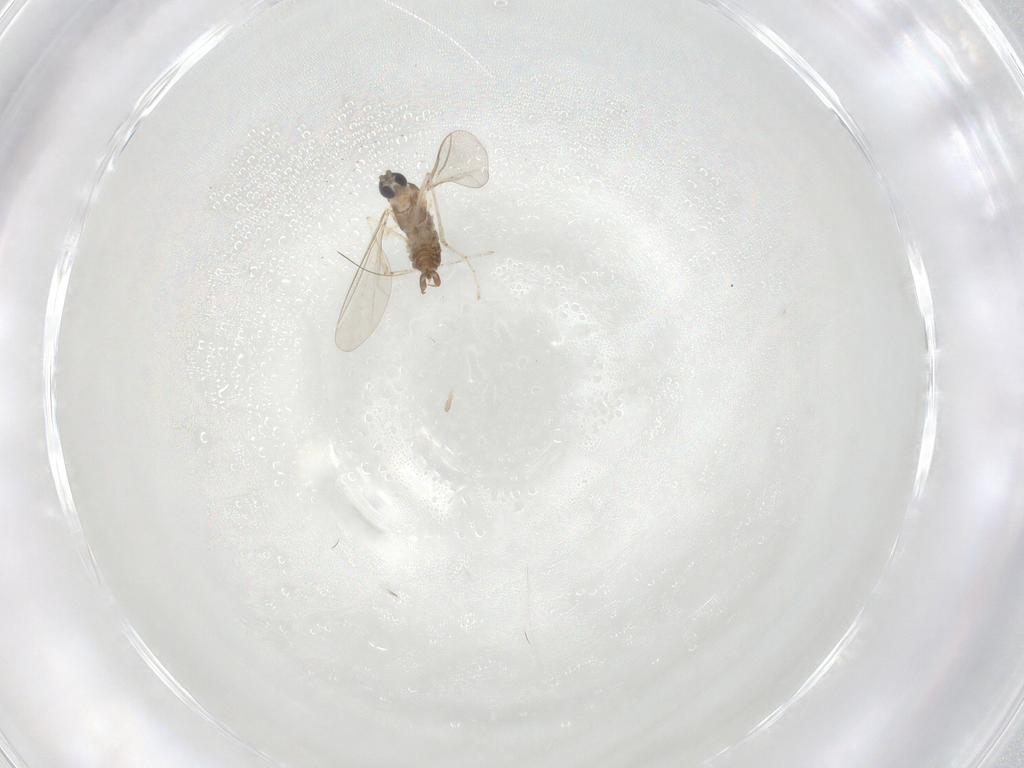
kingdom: Animalia
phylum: Arthropoda
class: Insecta
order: Diptera
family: Cecidomyiidae
